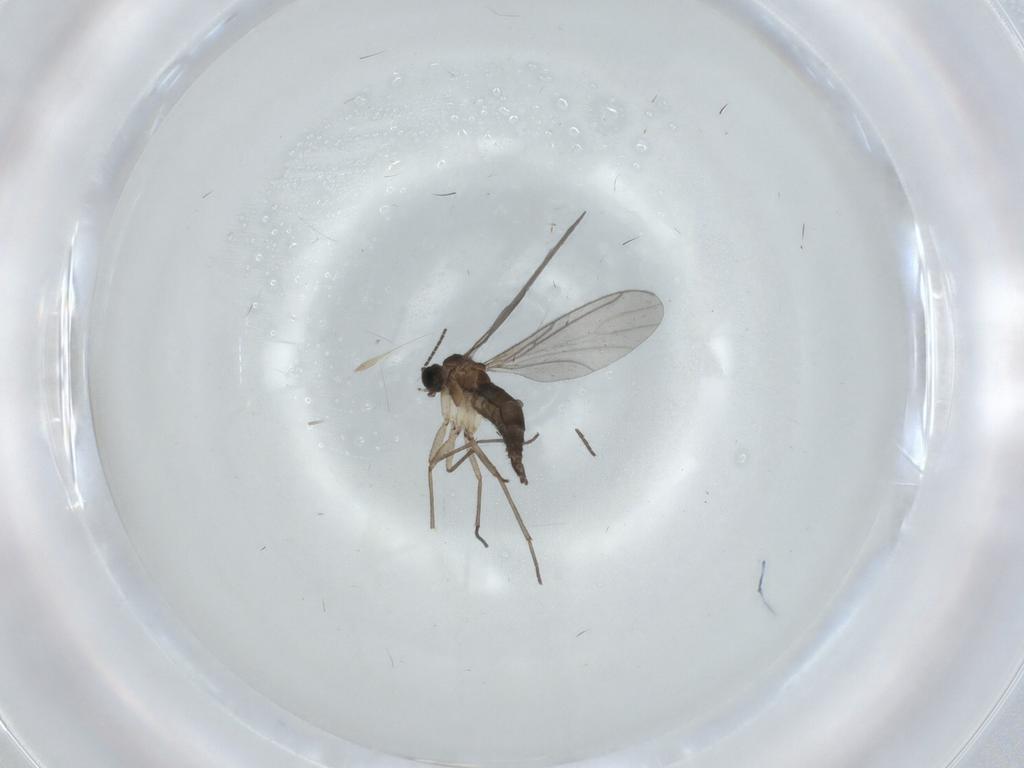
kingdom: Animalia
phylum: Arthropoda
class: Insecta
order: Diptera
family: Sciaridae
